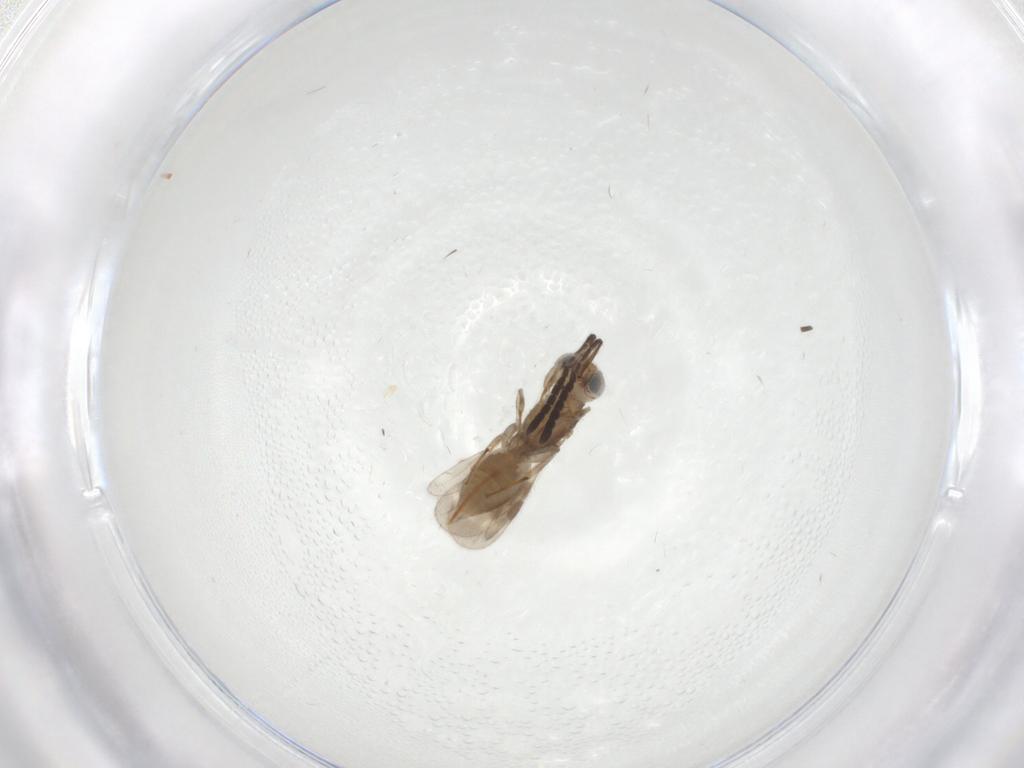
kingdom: Animalia
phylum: Arthropoda
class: Insecta
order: Hymenoptera
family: Megaspilidae
